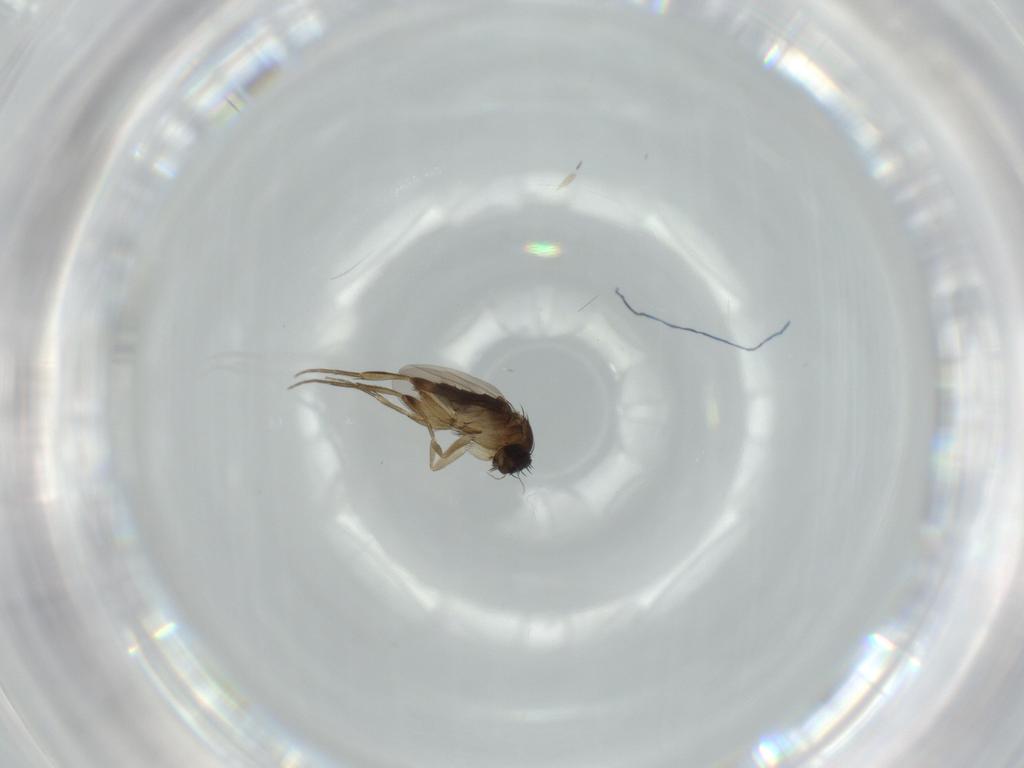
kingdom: Animalia
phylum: Arthropoda
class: Insecta
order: Diptera
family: Phoridae
